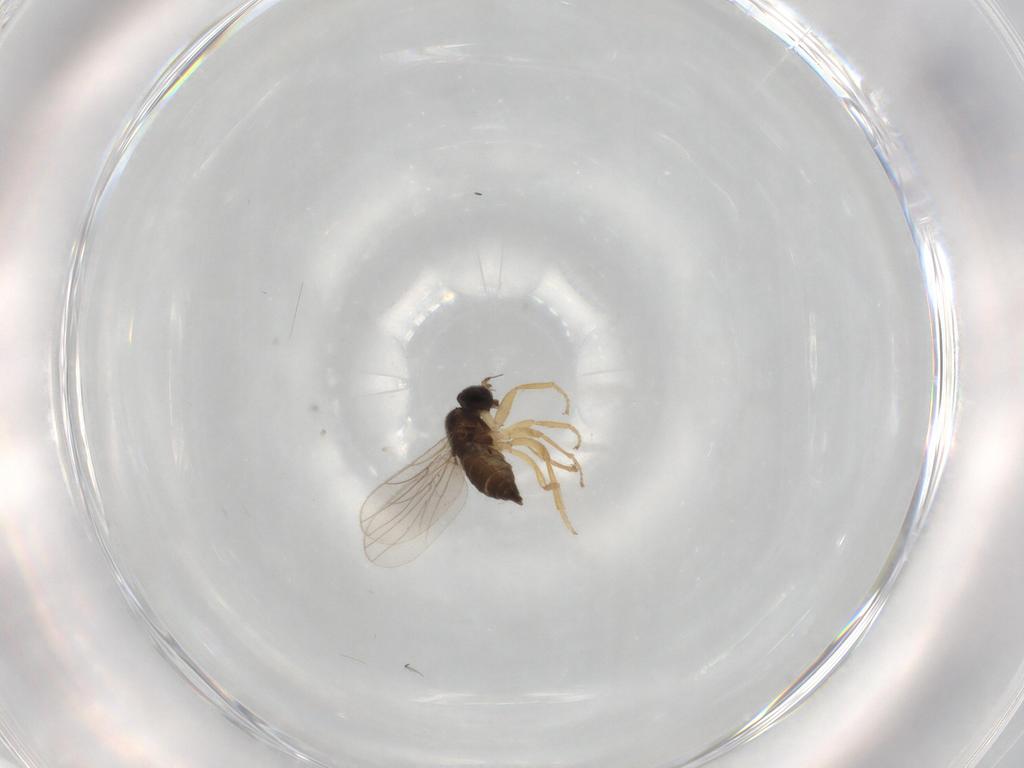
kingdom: Animalia
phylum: Arthropoda
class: Insecta
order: Diptera
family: Hybotidae
